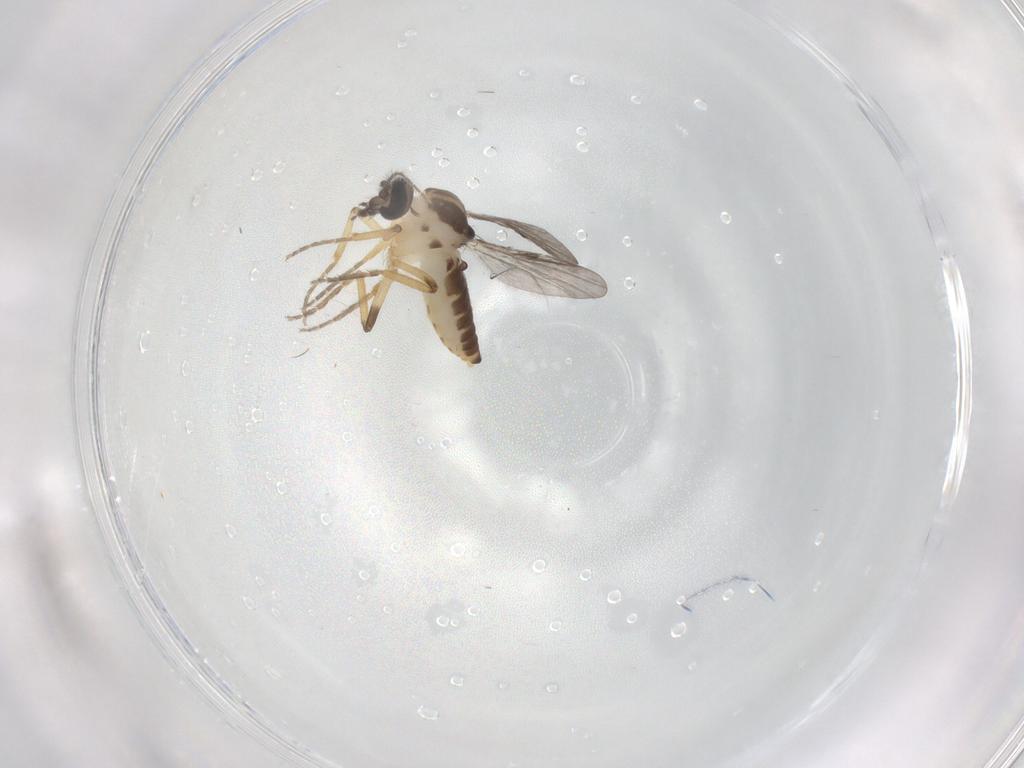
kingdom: Animalia
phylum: Arthropoda
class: Insecta
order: Diptera
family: Ceratopogonidae
